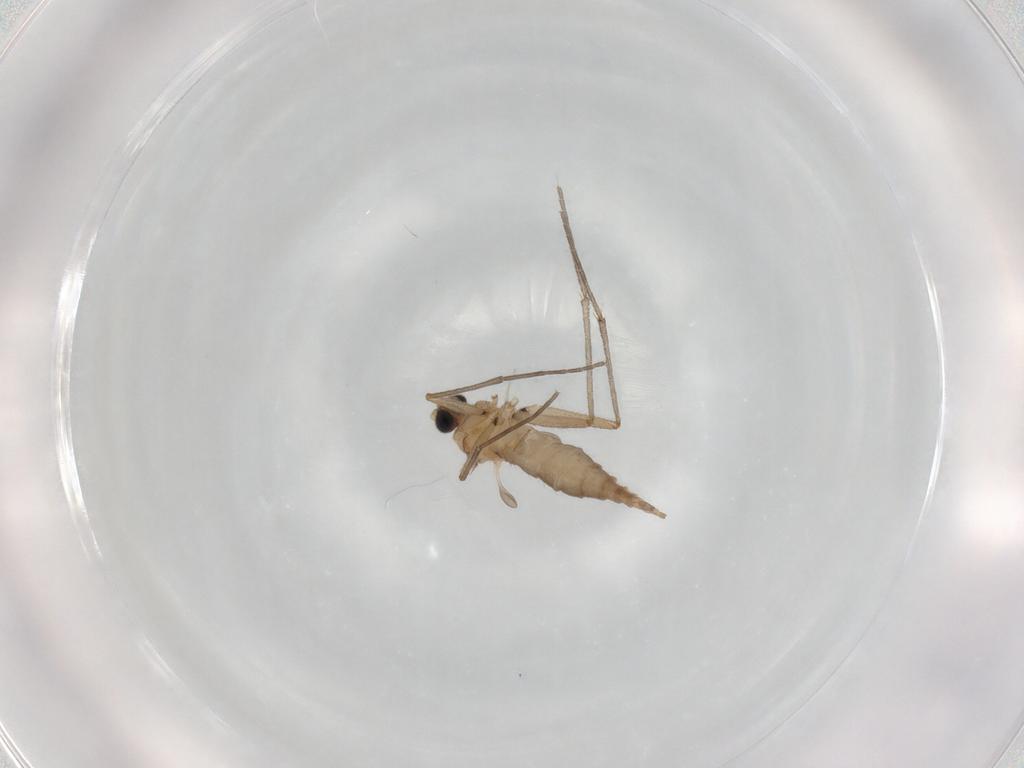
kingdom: Animalia
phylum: Arthropoda
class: Insecta
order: Diptera
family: Sciaridae
